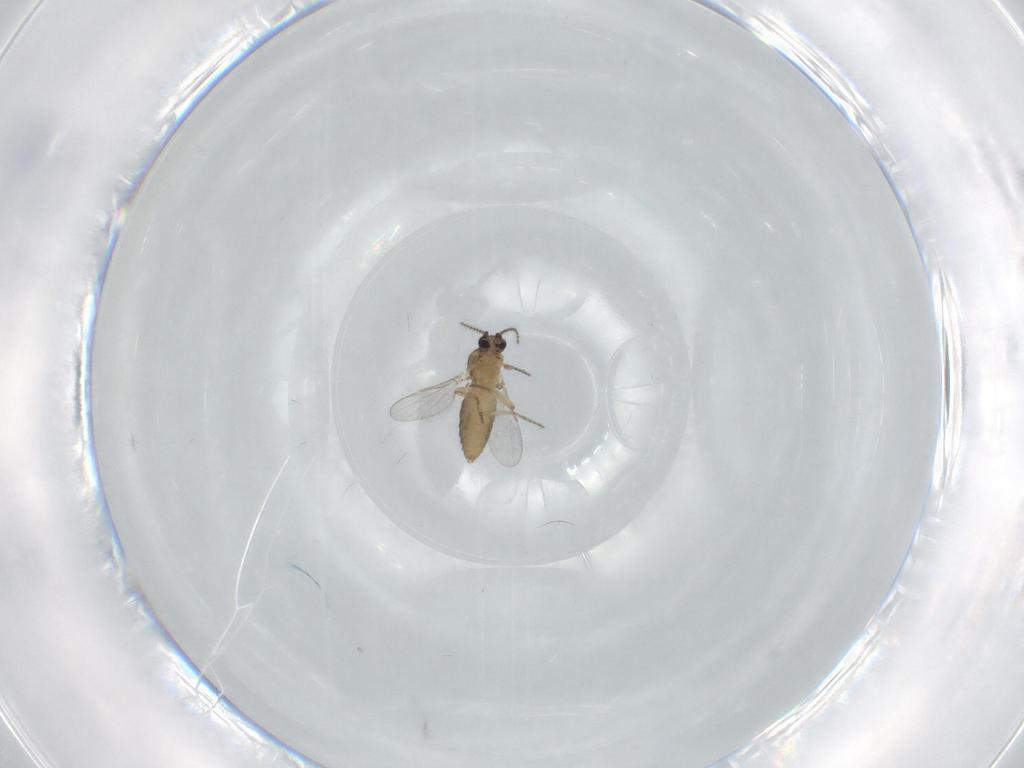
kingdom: Animalia
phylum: Arthropoda
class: Insecta
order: Diptera
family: Ceratopogonidae
